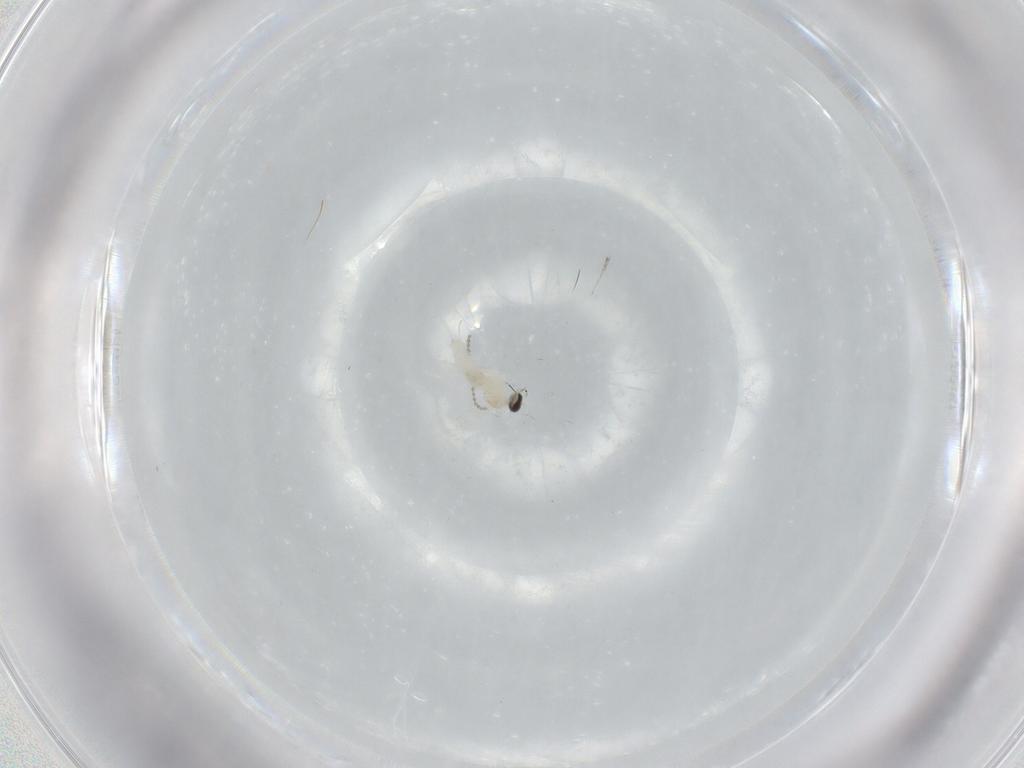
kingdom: Animalia
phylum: Arthropoda
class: Insecta
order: Diptera
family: Cecidomyiidae
